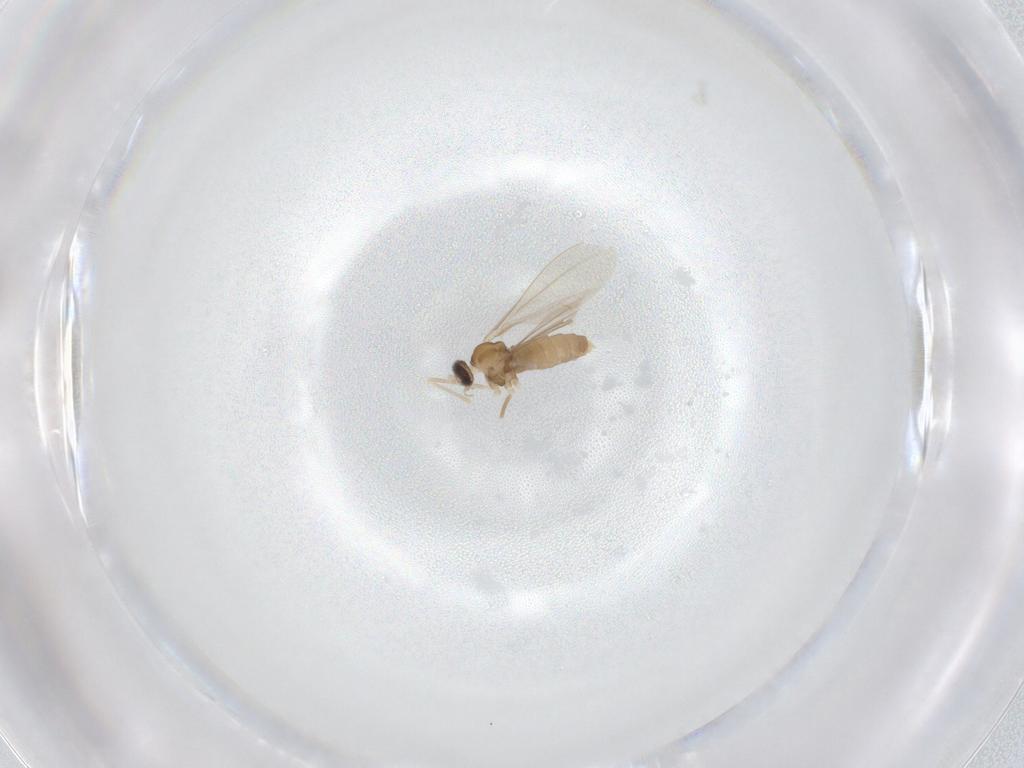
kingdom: Animalia
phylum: Arthropoda
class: Insecta
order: Diptera
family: Cecidomyiidae
